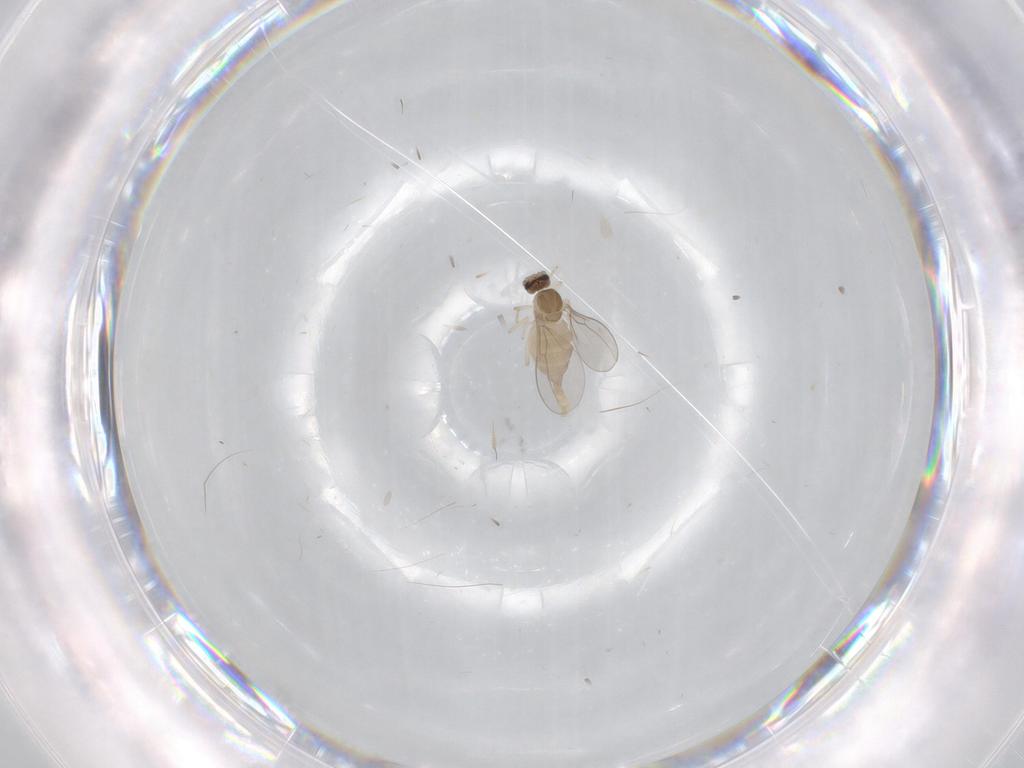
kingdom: Animalia
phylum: Arthropoda
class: Insecta
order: Diptera
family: Cecidomyiidae
